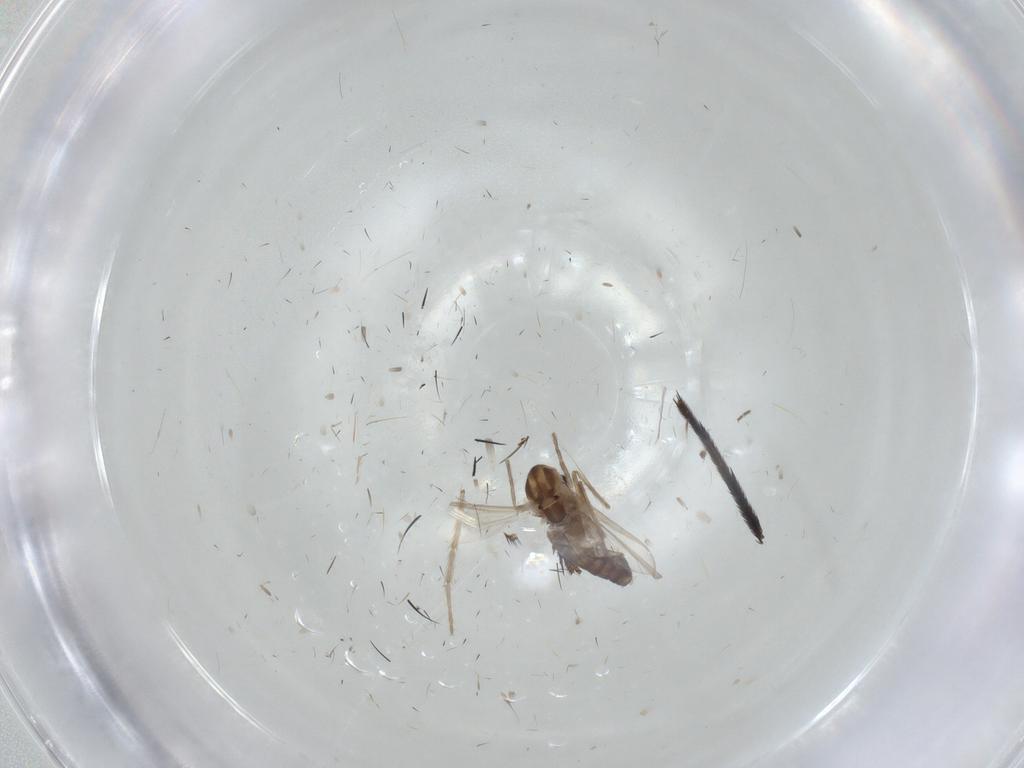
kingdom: Animalia
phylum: Arthropoda
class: Insecta
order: Diptera
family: Chironomidae
